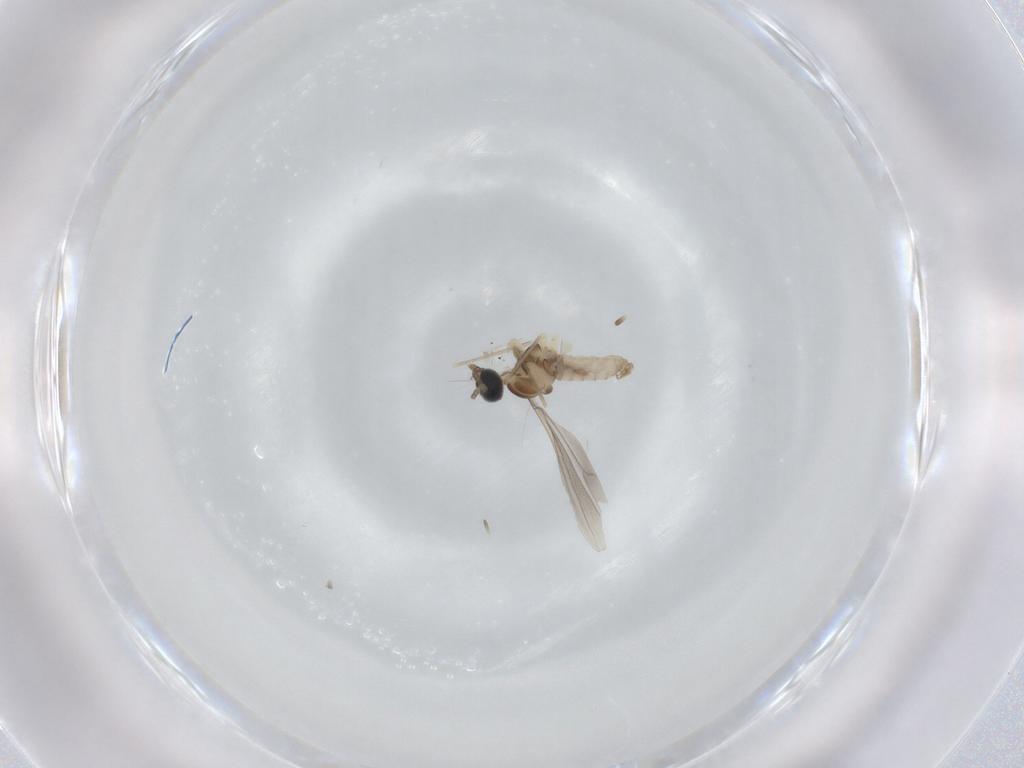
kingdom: Animalia
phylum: Arthropoda
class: Insecta
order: Diptera
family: Cecidomyiidae
